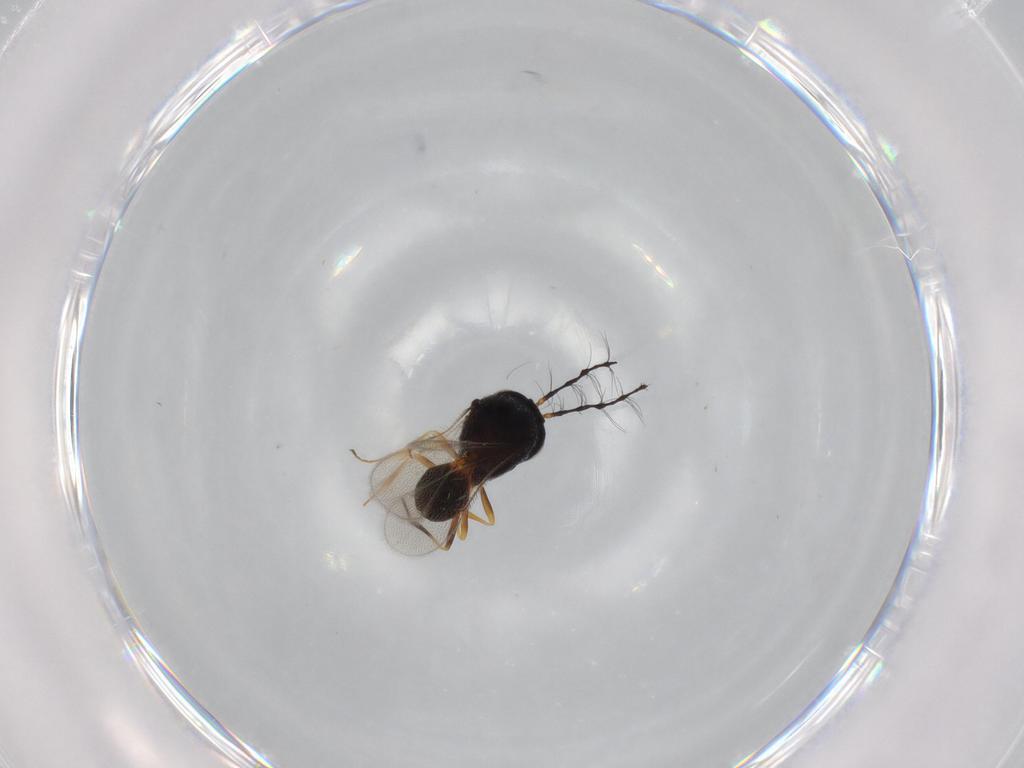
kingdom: Animalia
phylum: Arthropoda
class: Insecta
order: Hymenoptera
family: Scelionidae
